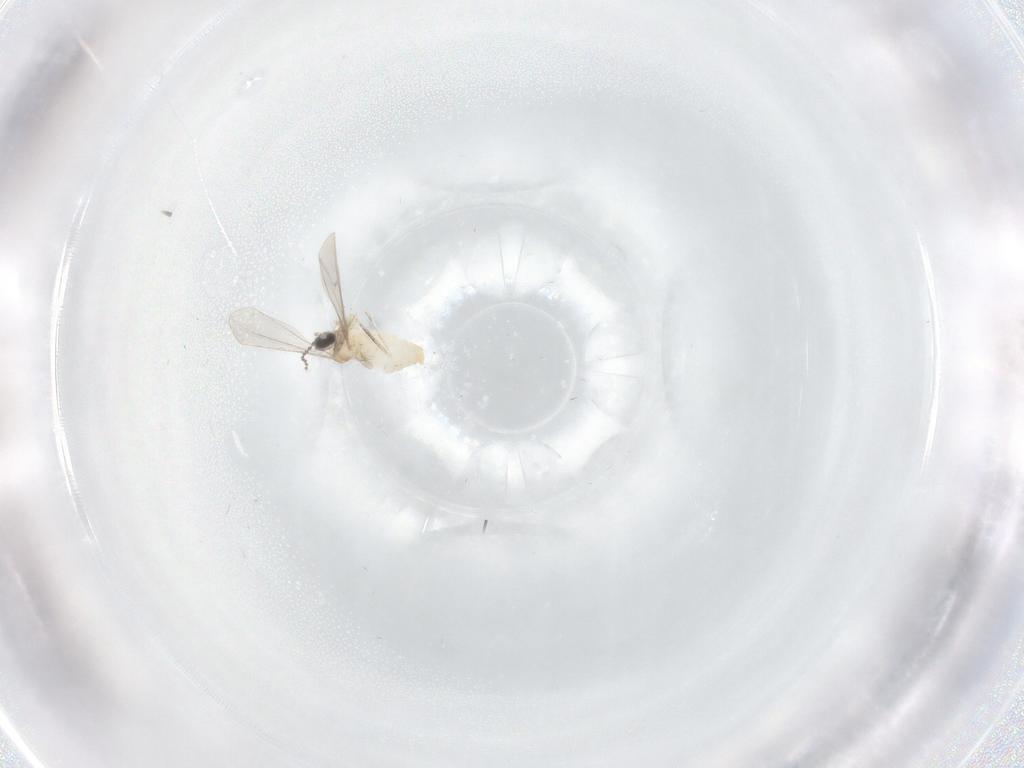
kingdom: Animalia
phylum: Arthropoda
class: Insecta
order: Diptera
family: Cecidomyiidae
